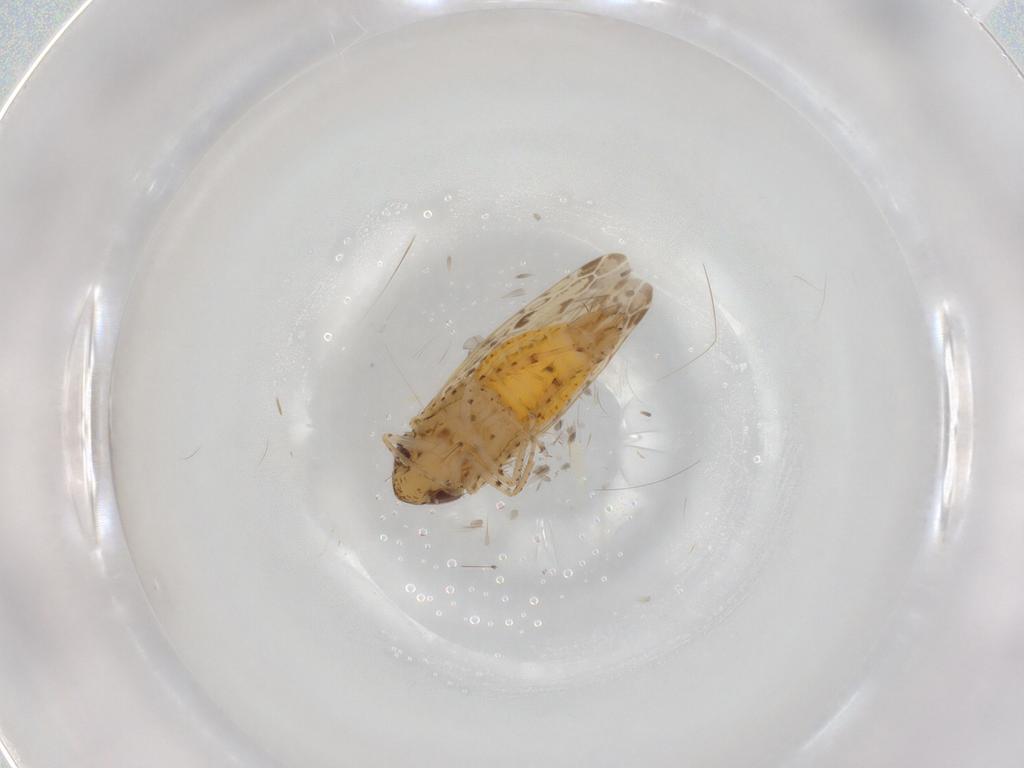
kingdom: Animalia
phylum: Arthropoda
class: Insecta
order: Hemiptera
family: Cicadellidae
